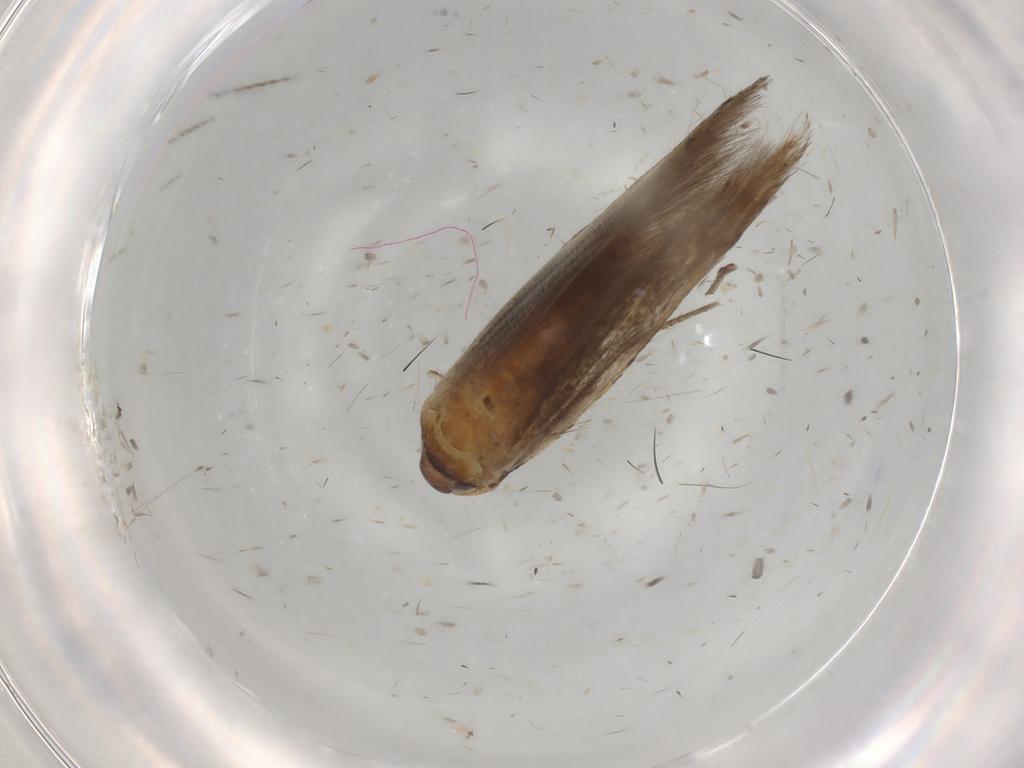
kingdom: Animalia
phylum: Arthropoda
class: Insecta
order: Lepidoptera
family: Cosmopterigidae
